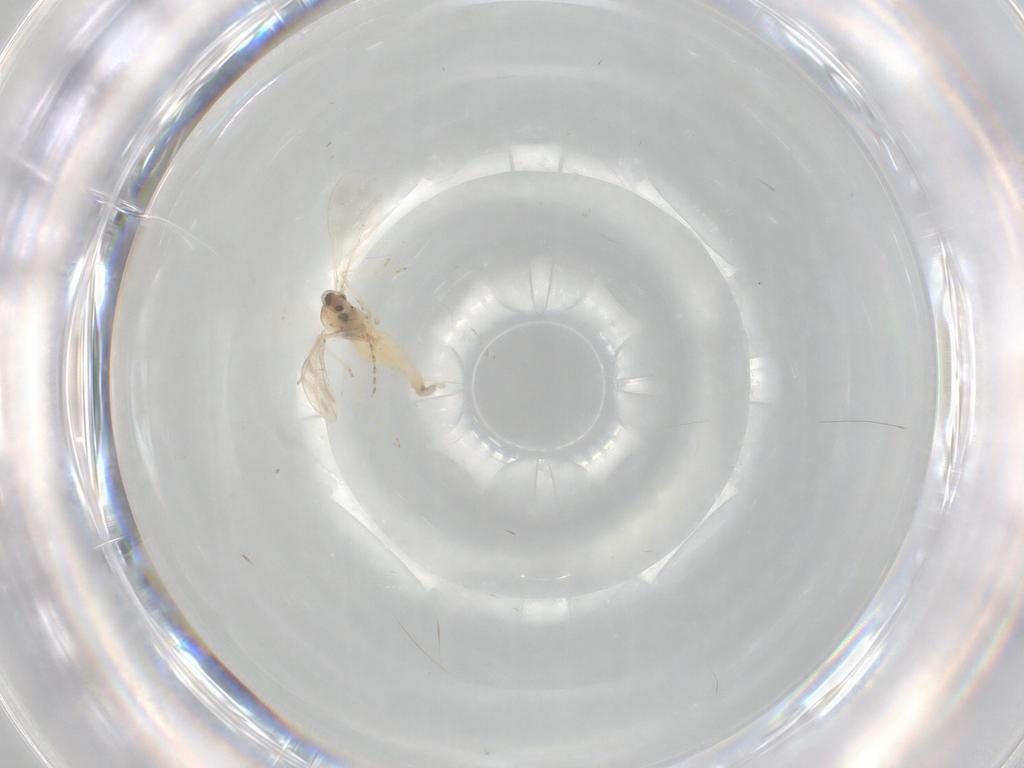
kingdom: Animalia
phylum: Arthropoda
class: Insecta
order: Diptera
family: Cecidomyiidae
